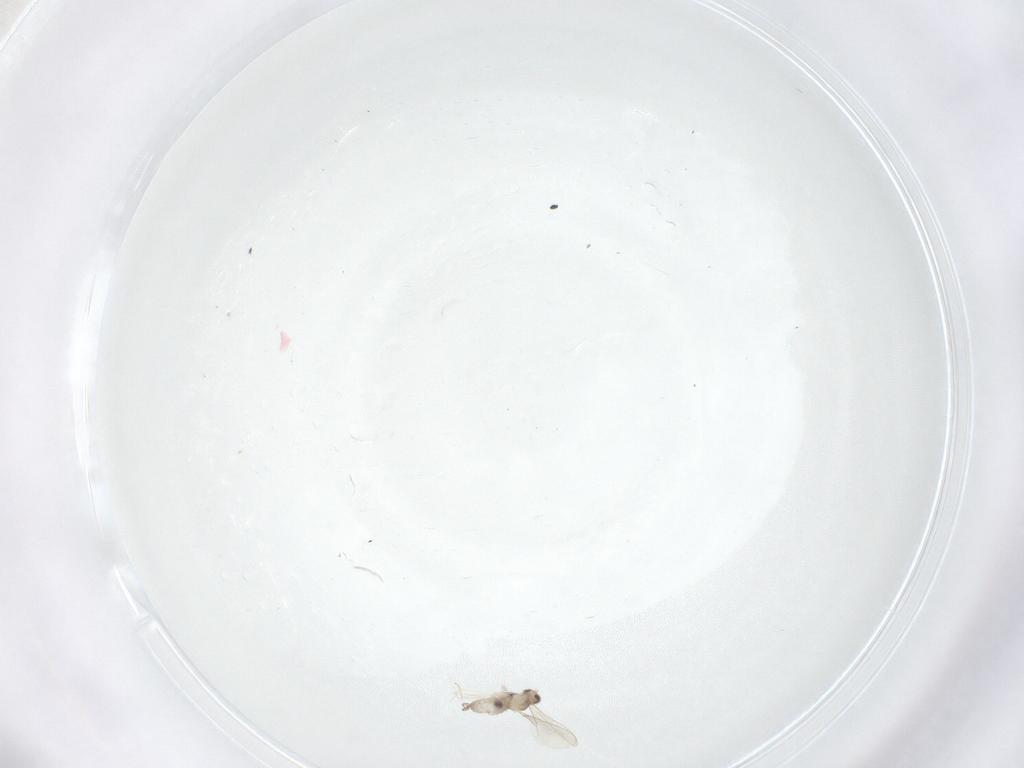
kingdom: Animalia
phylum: Arthropoda
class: Insecta
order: Diptera
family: Cecidomyiidae
